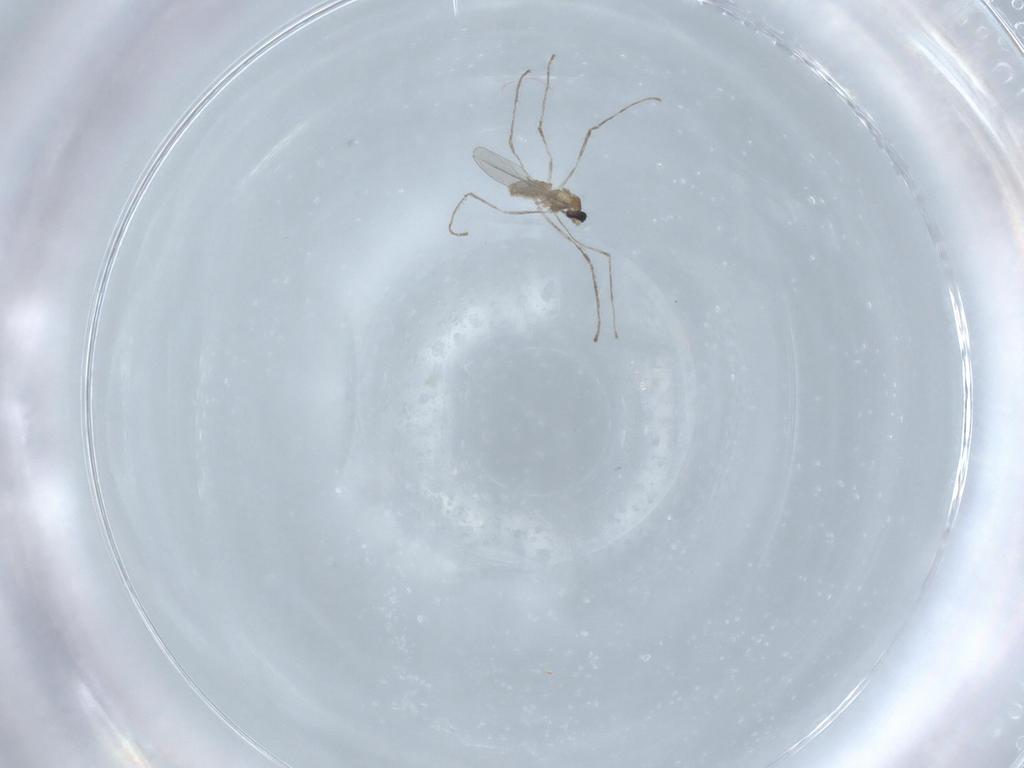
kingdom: Animalia
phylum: Arthropoda
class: Insecta
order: Diptera
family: Cecidomyiidae
